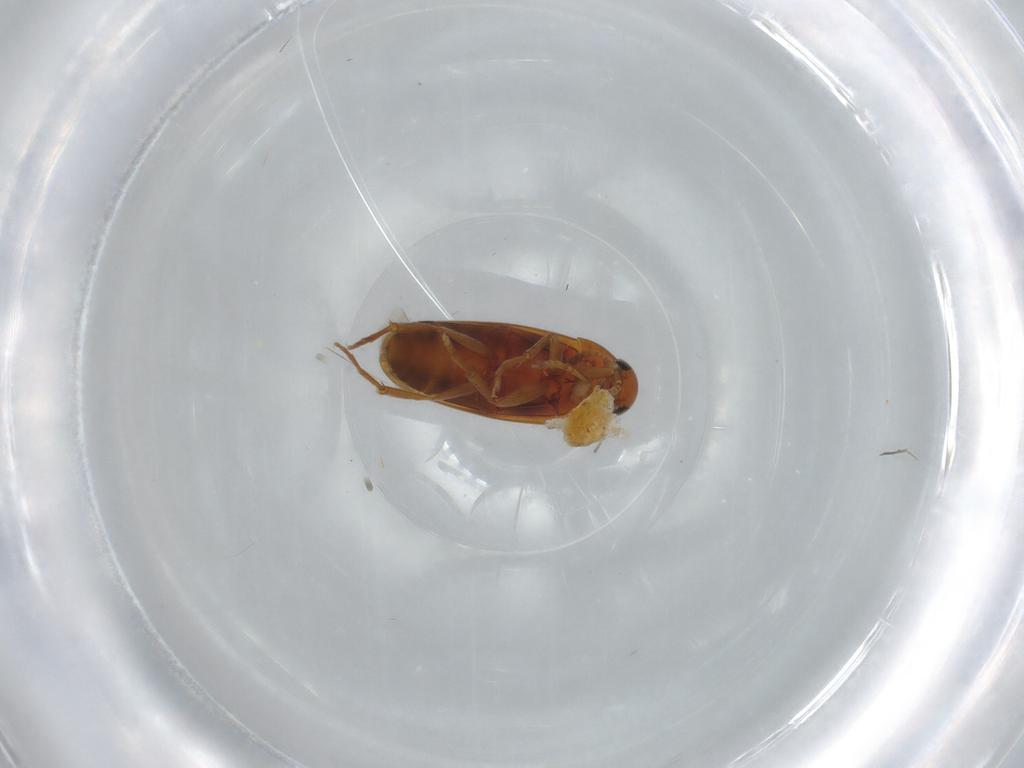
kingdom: Animalia
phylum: Arthropoda
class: Insecta
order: Coleoptera
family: Scraptiidae
